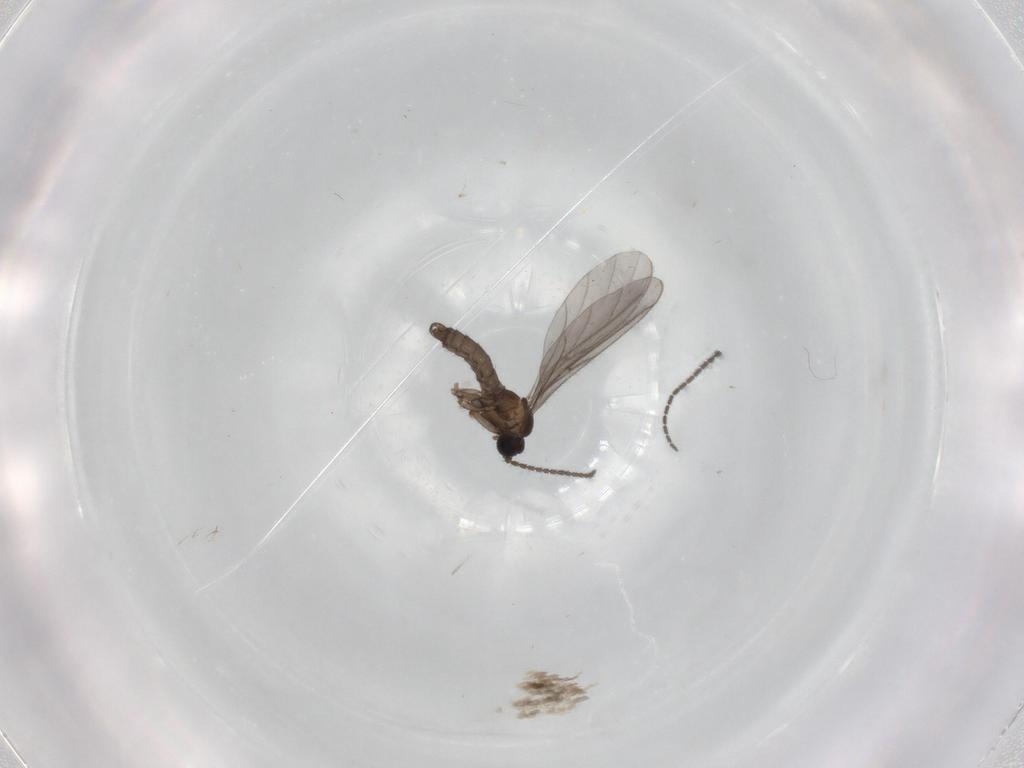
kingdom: Animalia
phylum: Arthropoda
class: Insecta
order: Diptera
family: Sciaridae
